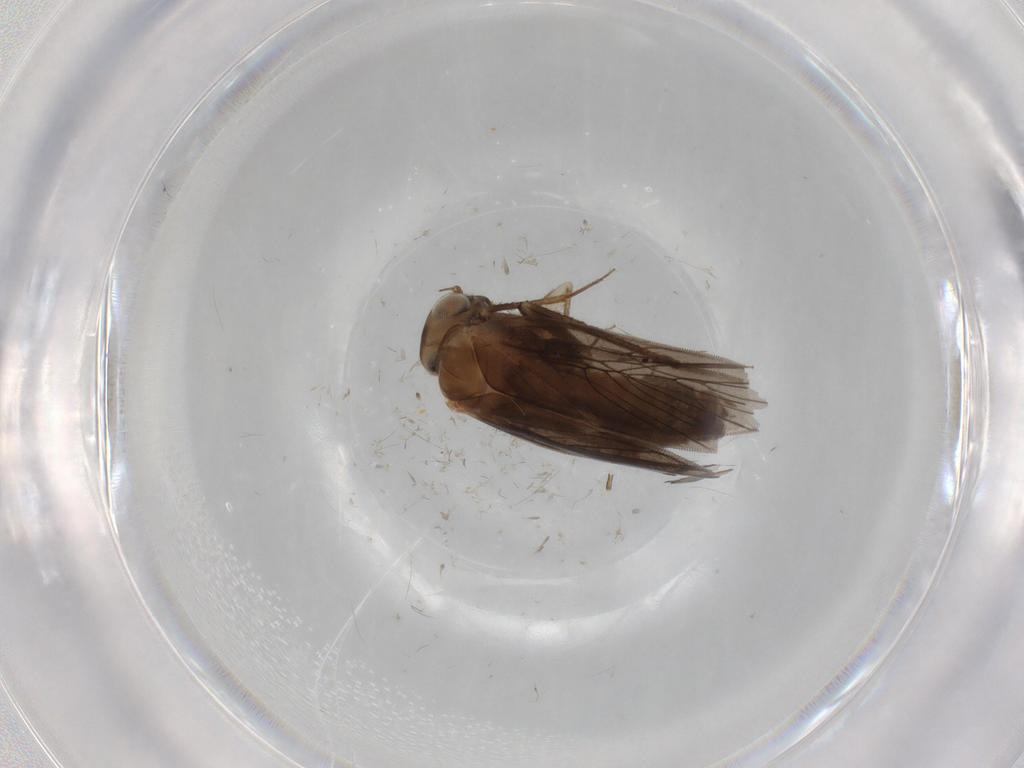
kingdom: Animalia
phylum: Arthropoda
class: Insecta
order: Psocodea
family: Lepidopsocidae
